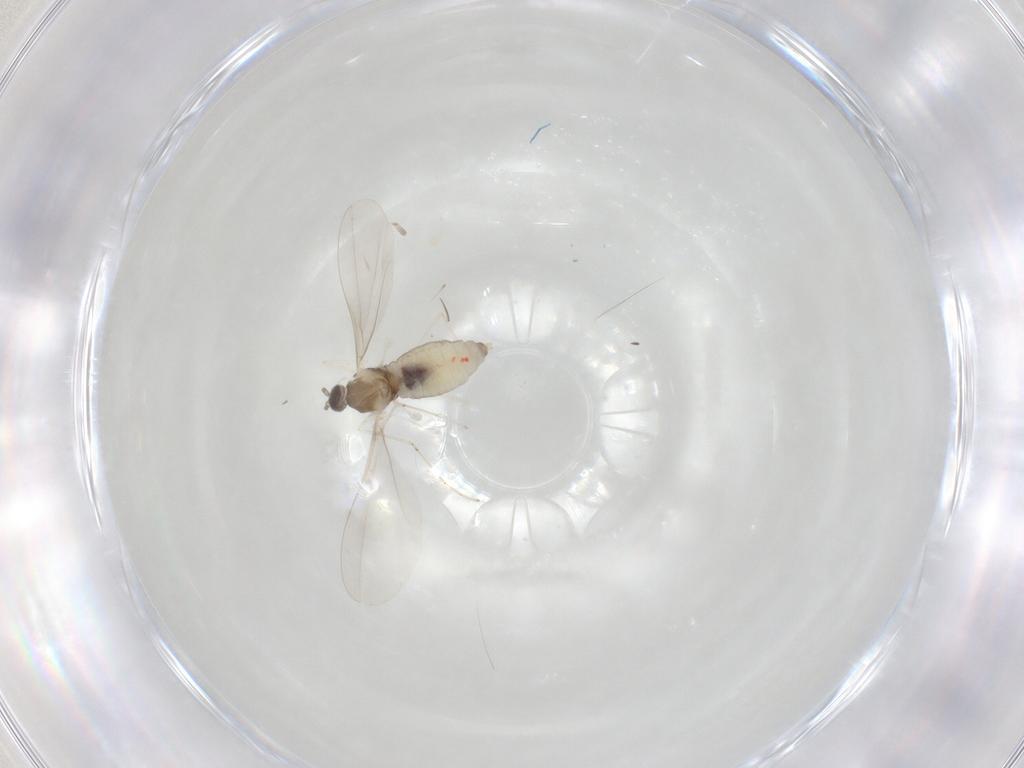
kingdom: Animalia
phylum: Arthropoda
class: Insecta
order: Diptera
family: Cecidomyiidae
